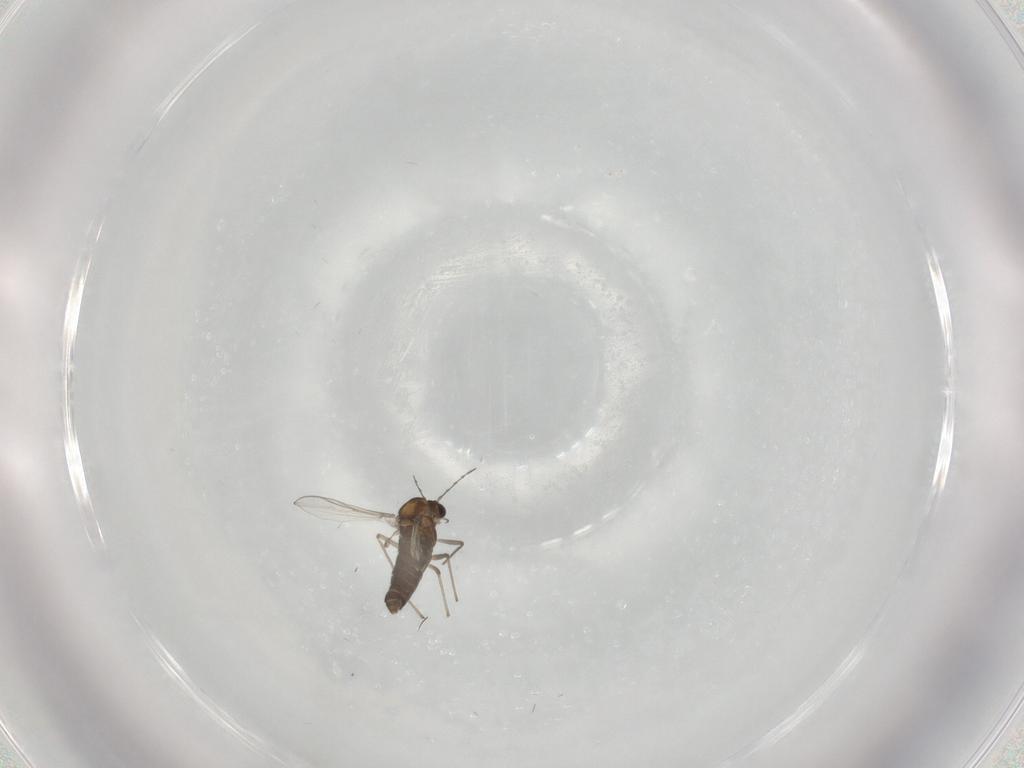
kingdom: Animalia
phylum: Arthropoda
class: Insecta
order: Diptera
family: Chironomidae
